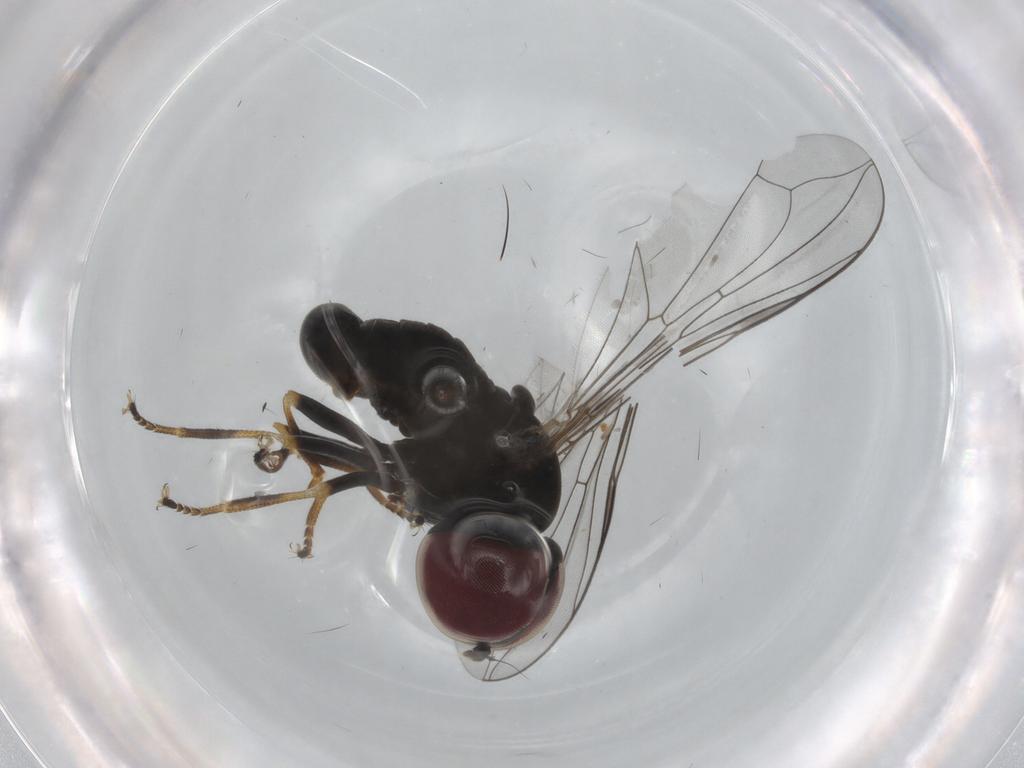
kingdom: Animalia
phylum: Arthropoda
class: Insecta
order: Diptera
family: Pipunculidae
